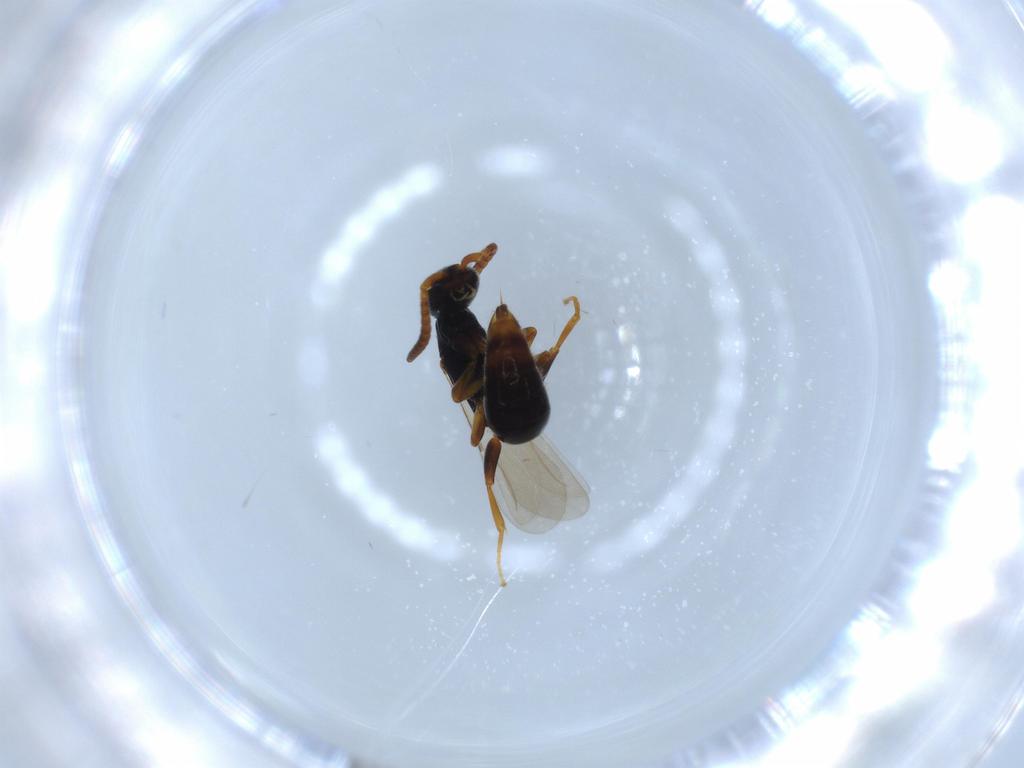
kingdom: Animalia
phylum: Arthropoda
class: Insecta
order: Hymenoptera
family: Bethylidae
